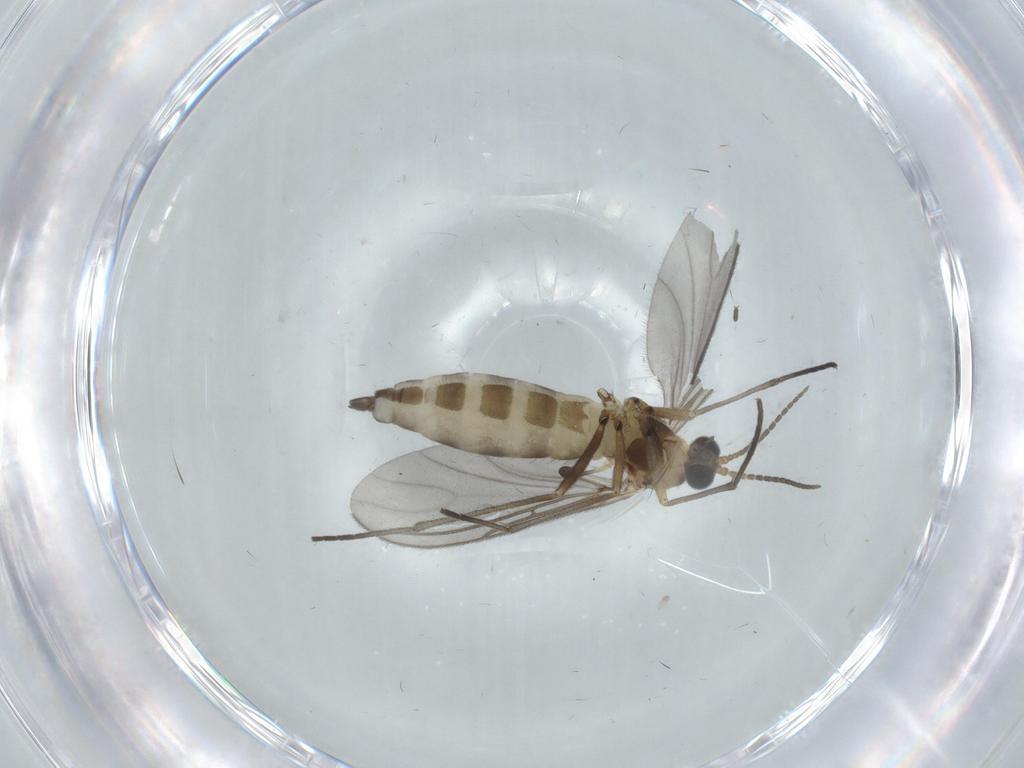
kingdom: Animalia
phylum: Arthropoda
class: Insecta
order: Diptera
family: Sciaridae
